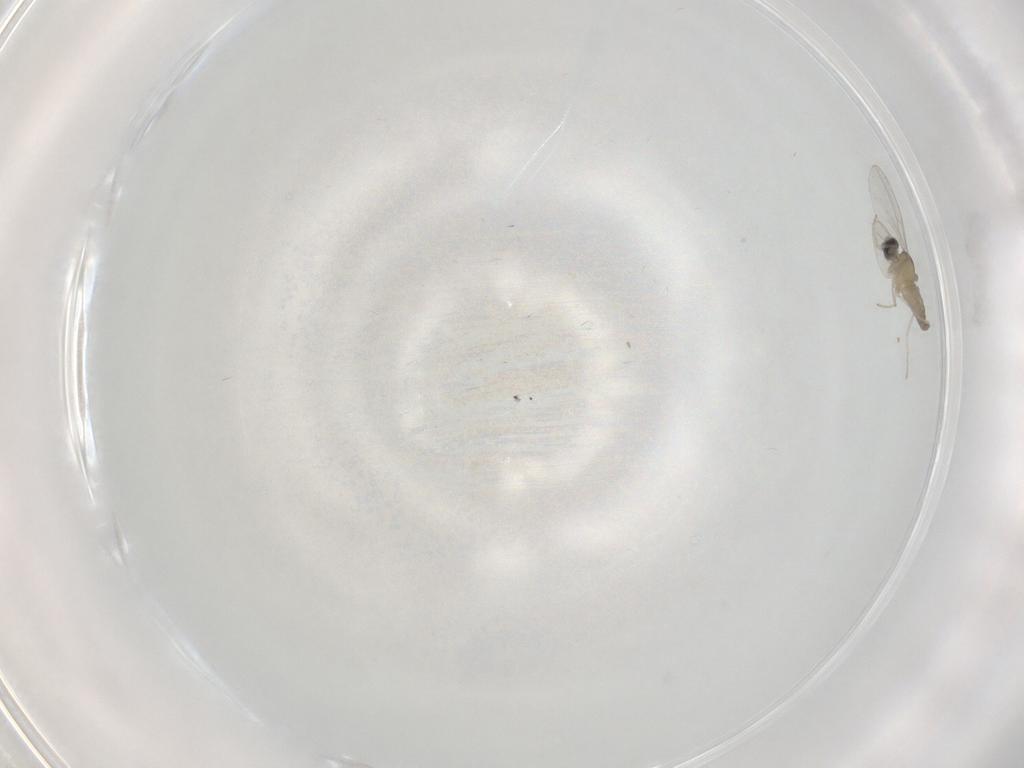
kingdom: Animalia
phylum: Arthropoda
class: Insecta
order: Diptera
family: Cecidomyiidae
